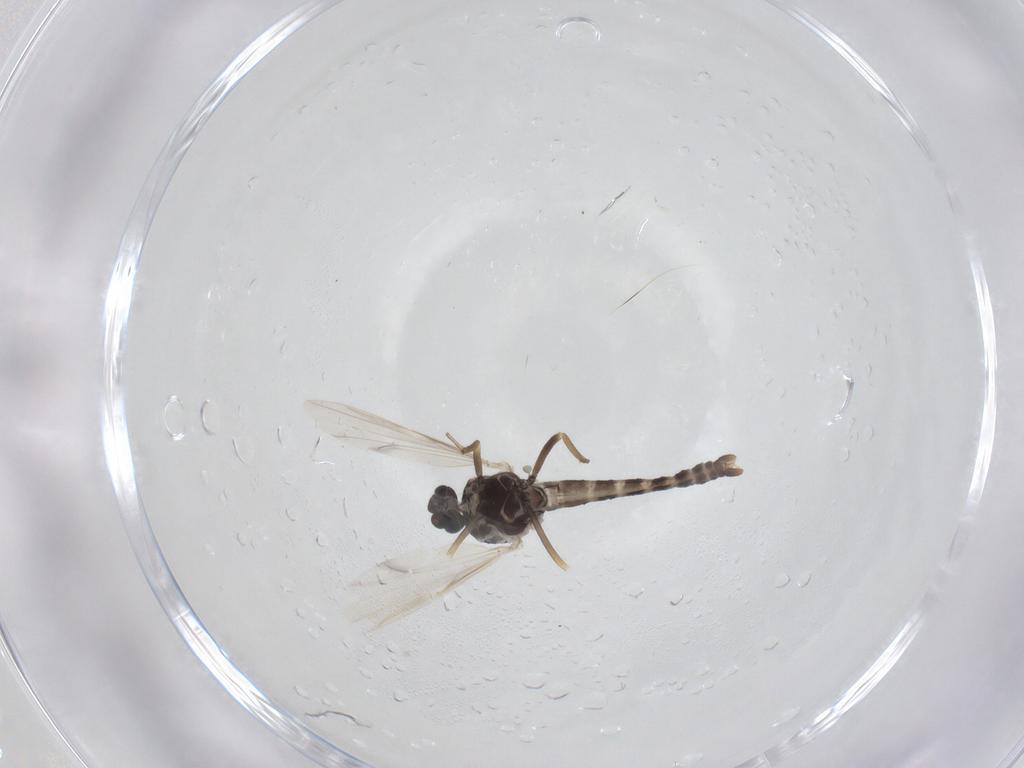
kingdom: Animalia
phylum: Arthropoda
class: Insecta
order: Diptera
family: Ceratopogonidae
